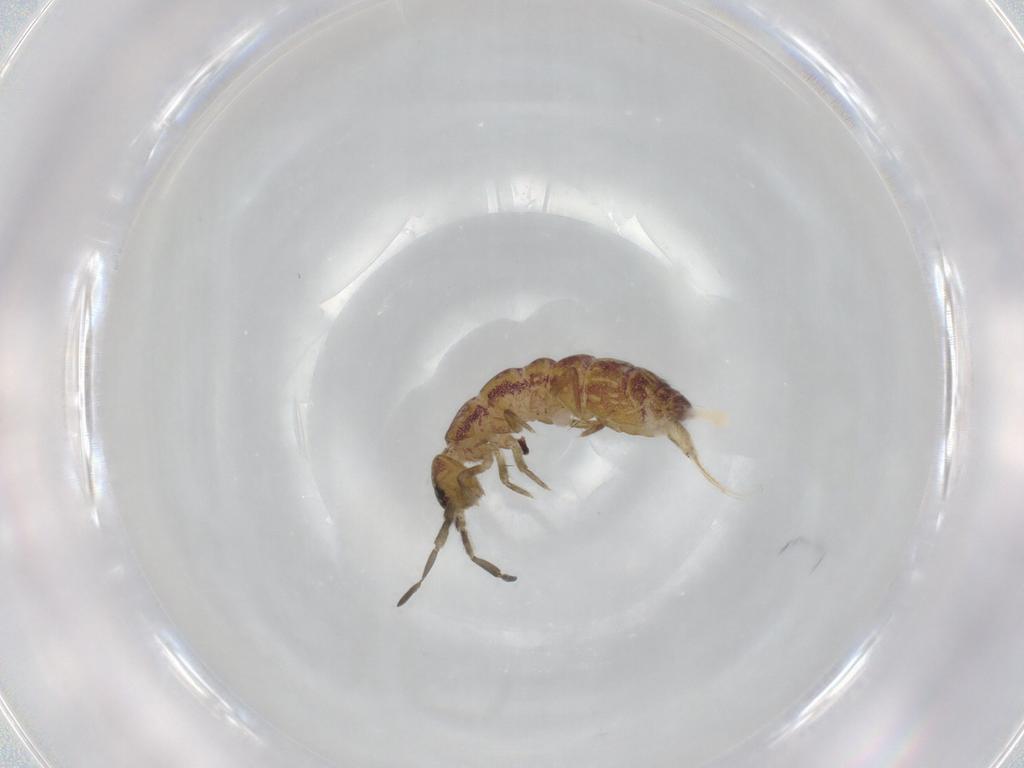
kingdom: Animalia
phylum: Arthropoda
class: Collembola
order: Entomobryomorpha
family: Isotomidae
